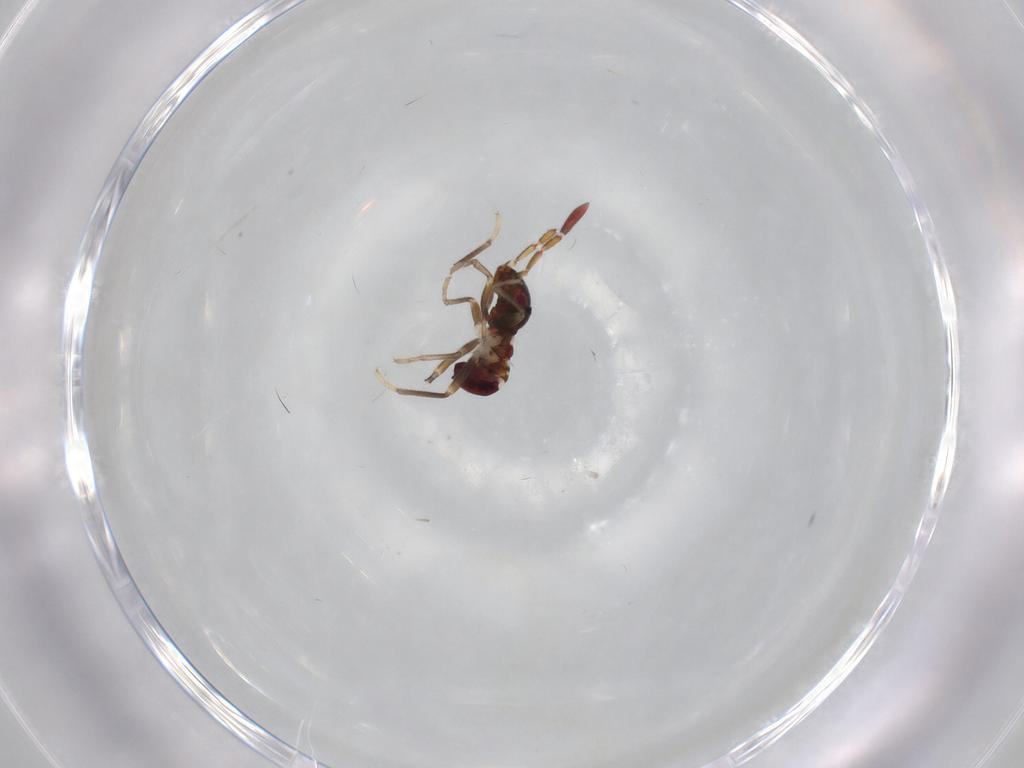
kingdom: Animalia
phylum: Arthropoda
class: Insecta
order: Hemiptera
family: Rhyparochromidae
